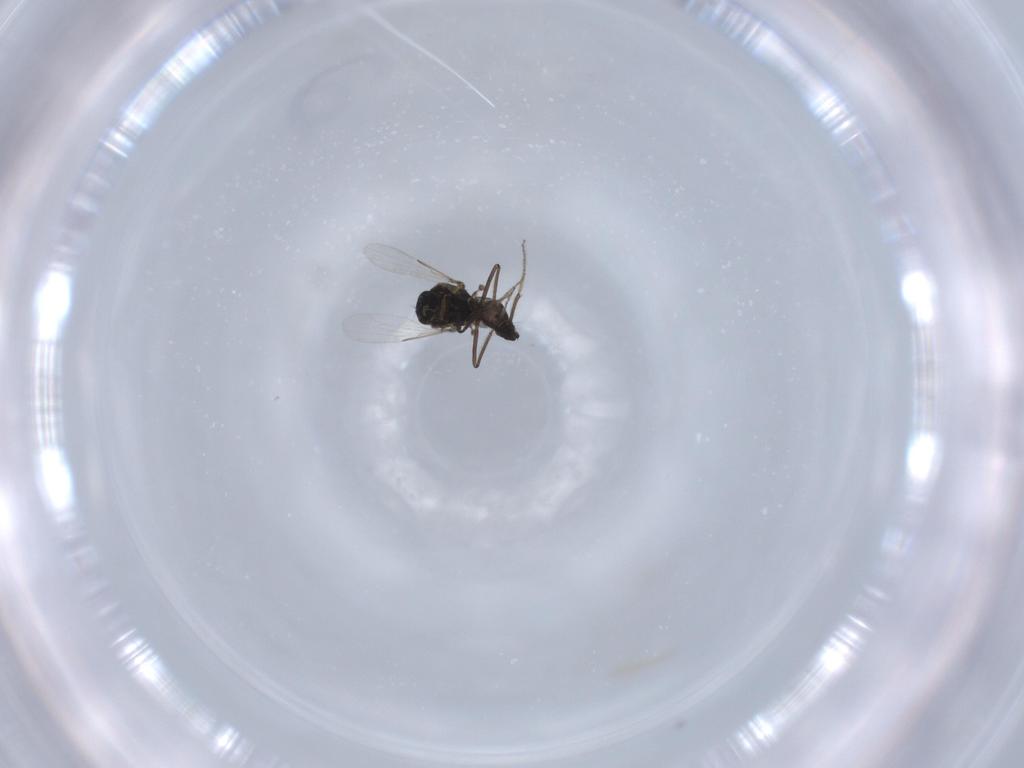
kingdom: Animalia
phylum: Arthropoda
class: Insecta
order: Diptera
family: Ceratopogonidae
